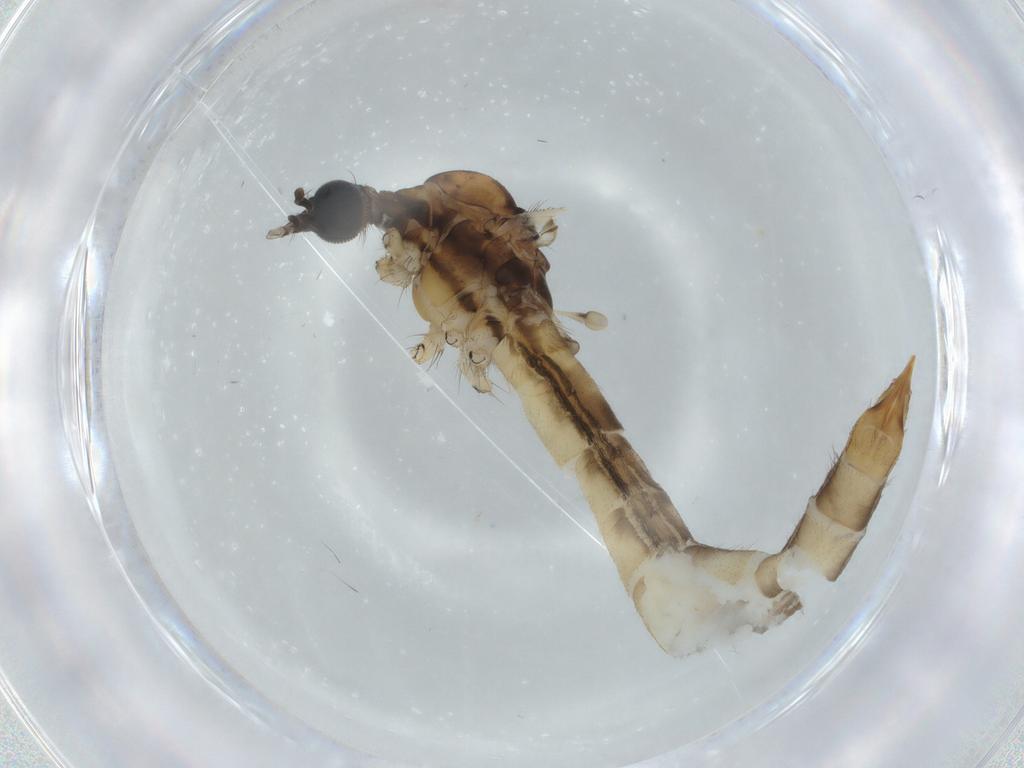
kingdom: Animalia
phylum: Arthropoda
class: Insecta
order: Diptera
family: Limoniidae
